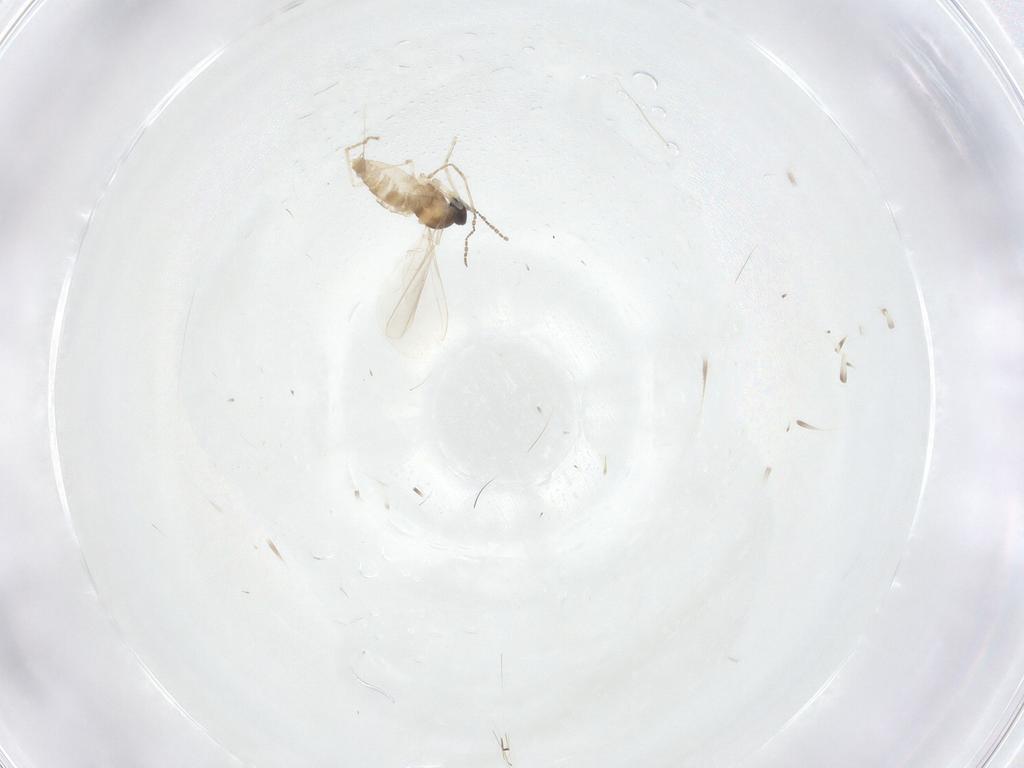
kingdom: Animalia
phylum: Arthropoda
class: Insecta
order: Diptera
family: Cecidomyiidae
